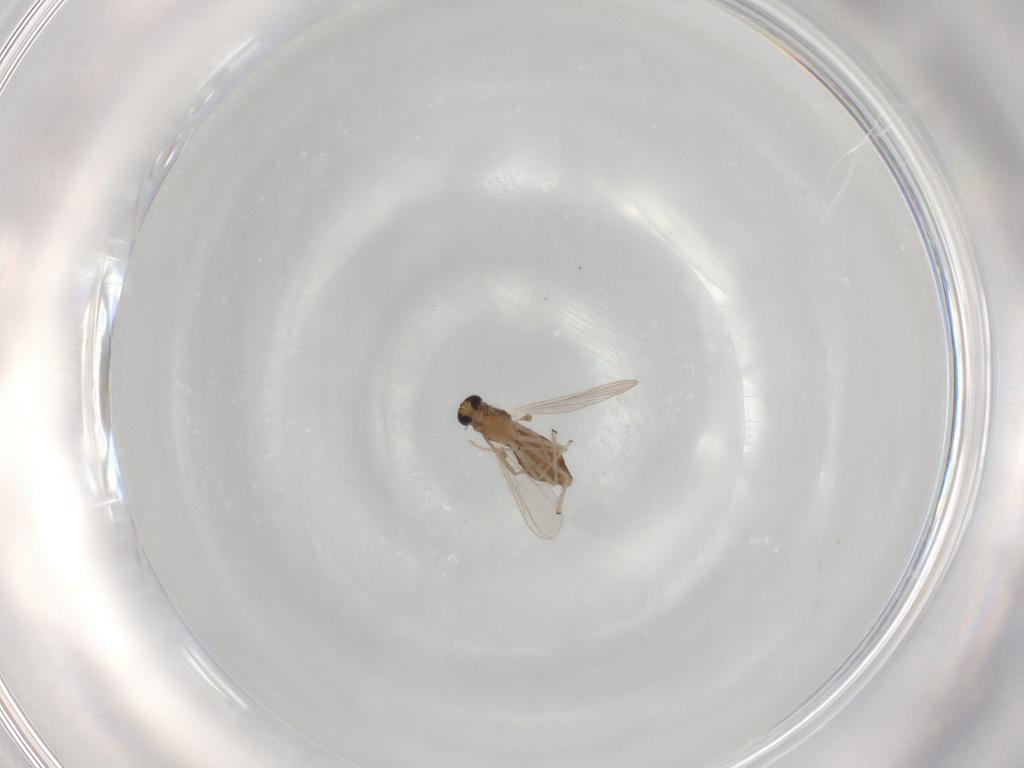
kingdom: Animalia
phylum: Arthropoda
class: Insecta
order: Diptera
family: Chironomidae
